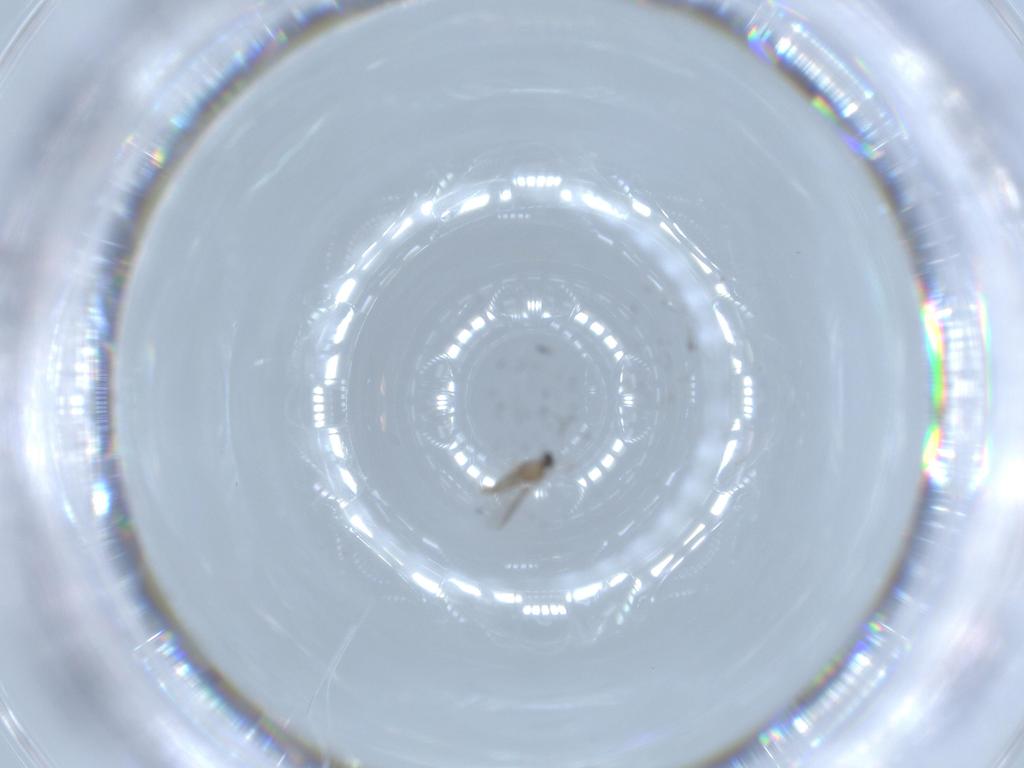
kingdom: Animalia
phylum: Arthropoda
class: Insecta
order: Diptera
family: Cecidomyiidae
